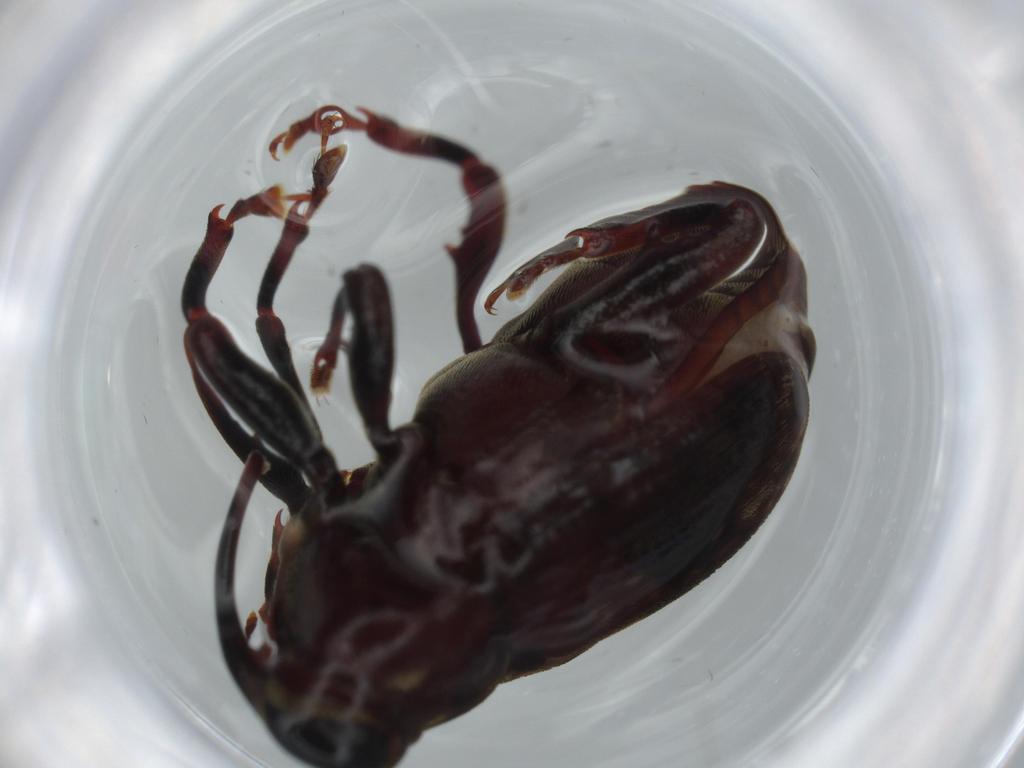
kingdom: Animalia
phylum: Arthropoda
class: Insecta
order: Coleoptera
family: Curculionidae
